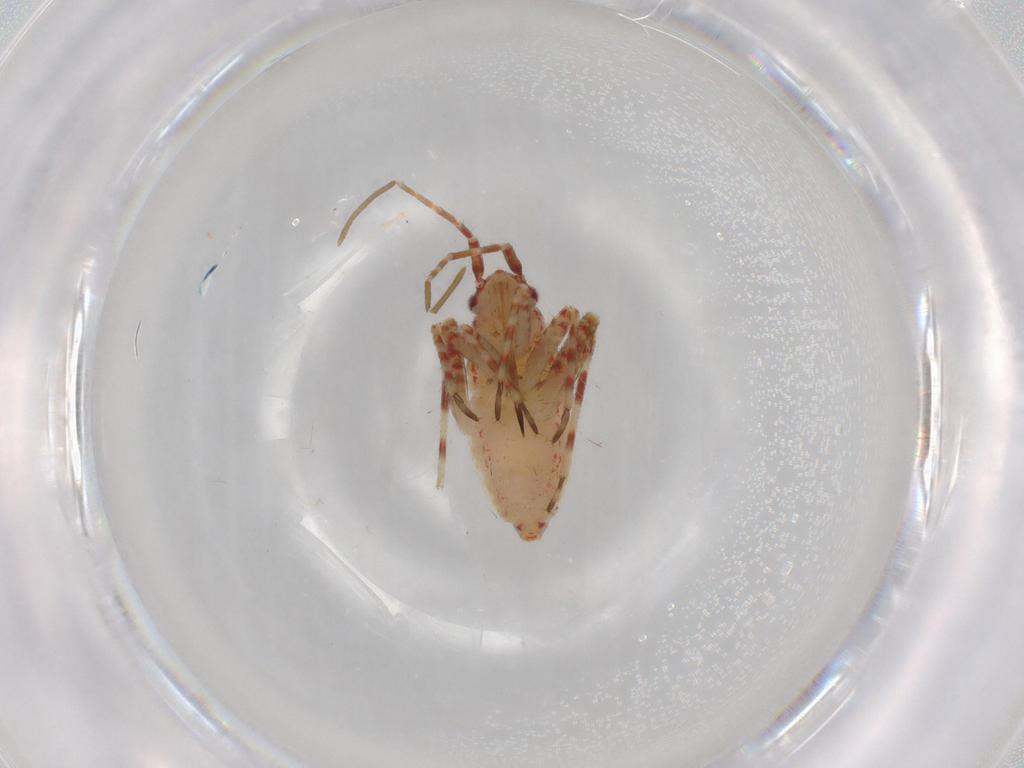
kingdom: Animalia
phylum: Arthropoda
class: Insecta
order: Hemiptera
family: Miridae
